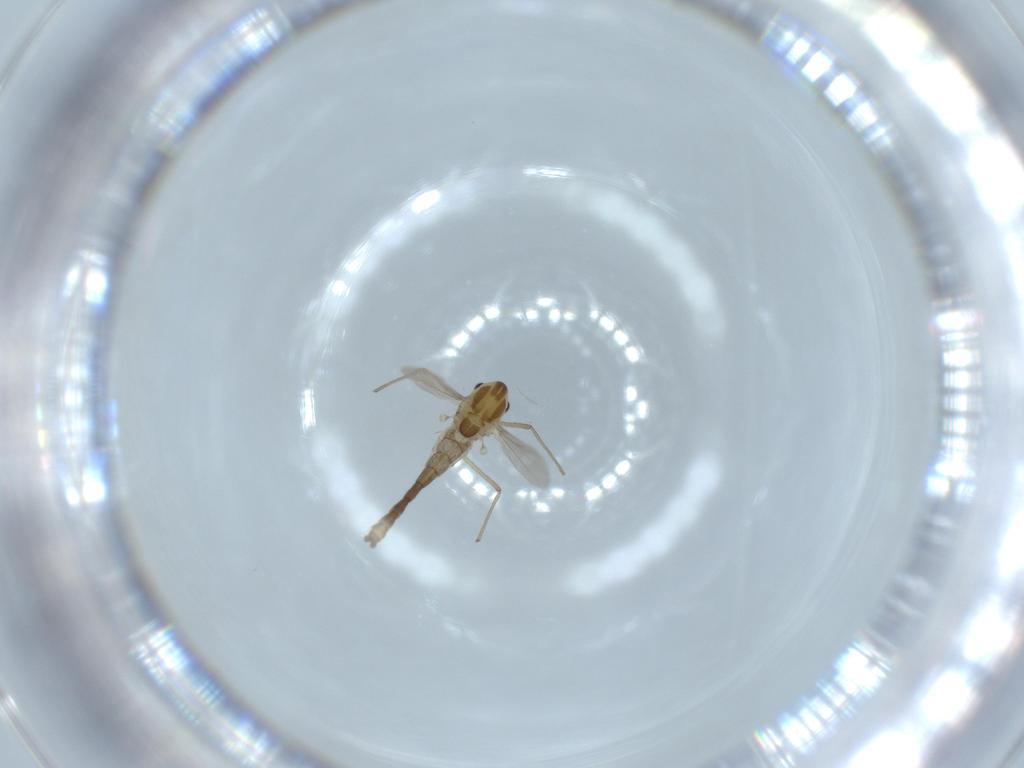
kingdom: Animalia
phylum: Arthropoda
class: Insecta
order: Diptera
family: Chironomidae
